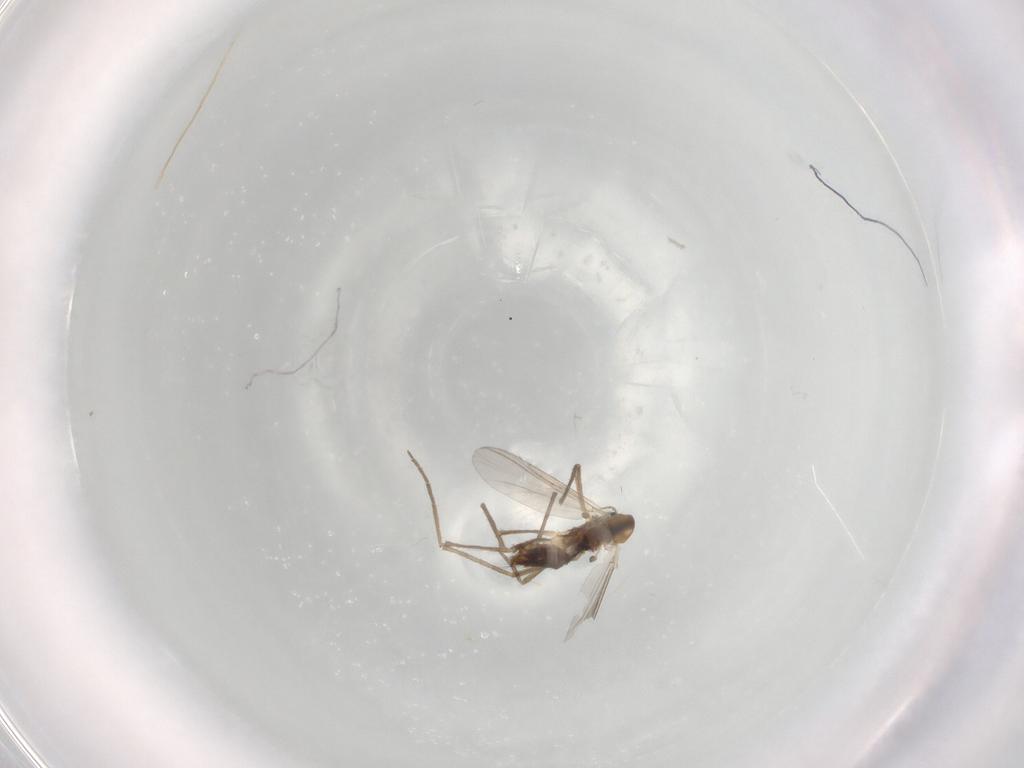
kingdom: Animalia
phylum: Arthropoda
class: Insecta
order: Diptera
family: Chironomidae
